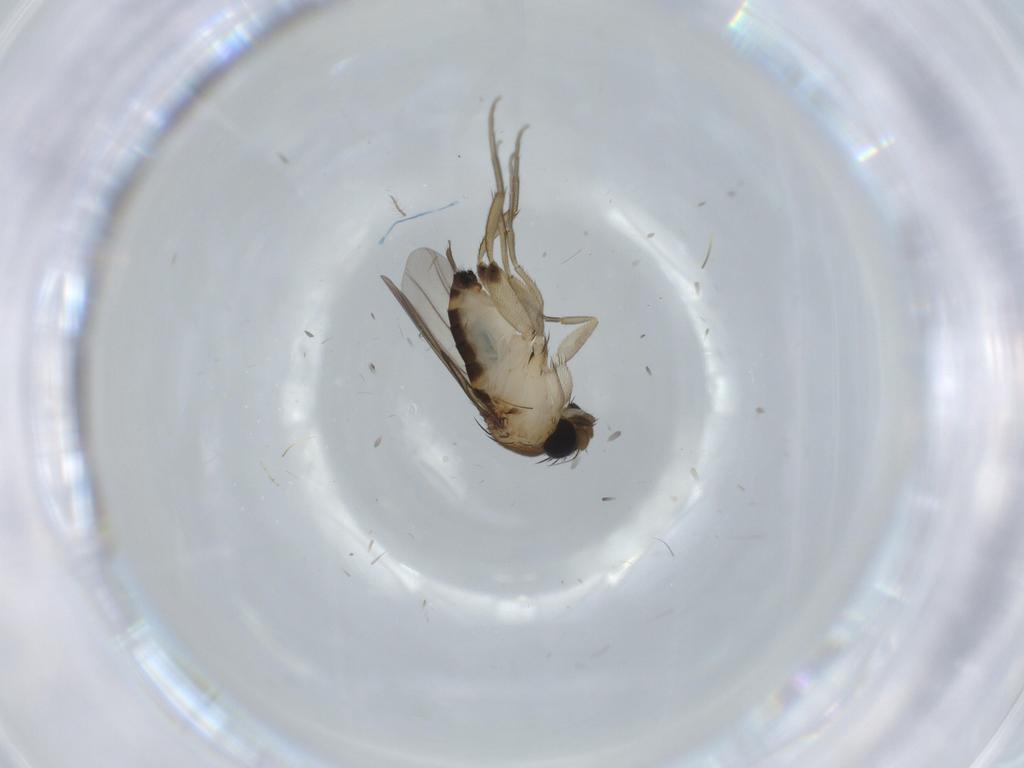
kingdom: Animalia
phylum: Arthropoda
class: Insecta
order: Diptera
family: Phoridae
